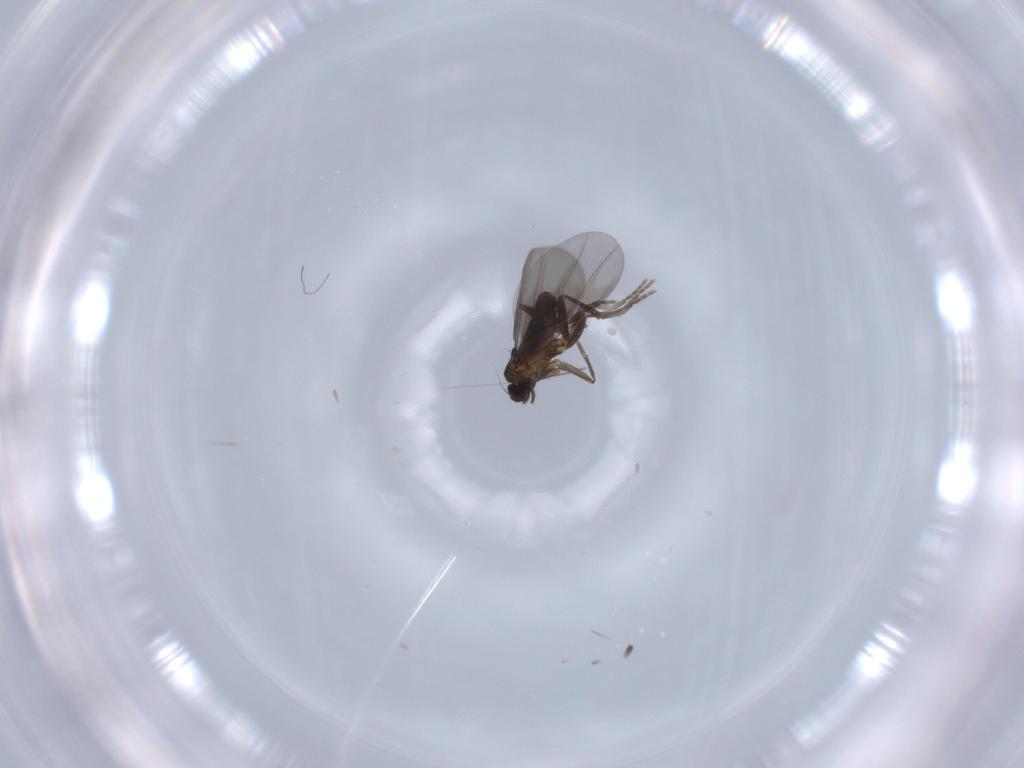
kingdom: Animalia
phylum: Arthropoda
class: Insecta
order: Diptera
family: Phoridae
